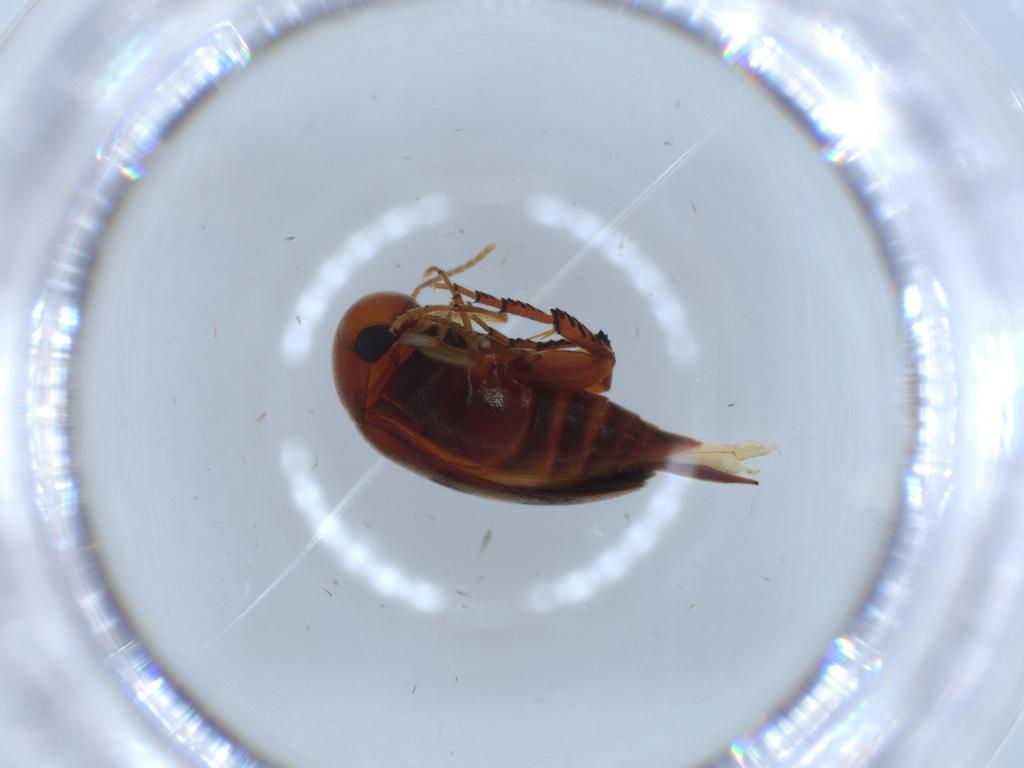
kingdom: Animalia
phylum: Arthropoda
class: Insecta
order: Coleoptera
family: Mordellidae
